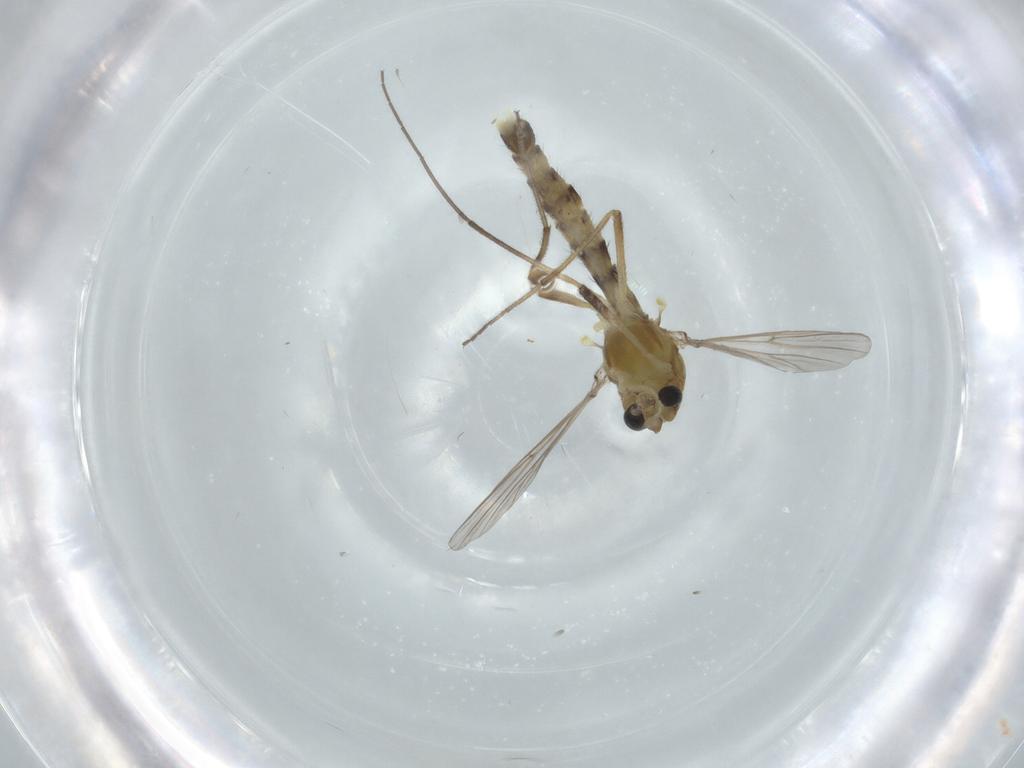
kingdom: Animalia
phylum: Arthropoda
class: Insecta
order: Diptera
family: Chironomidae
